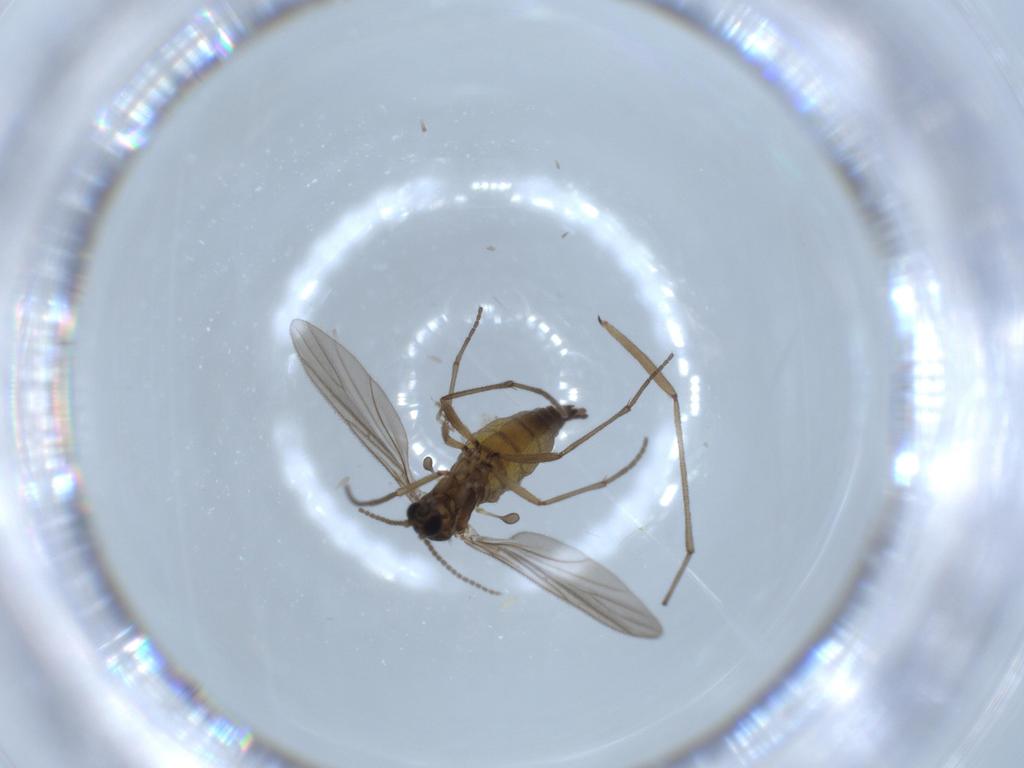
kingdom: Animalia
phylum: Arthropoda
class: Insecta
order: Diptera
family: Sciaridae
